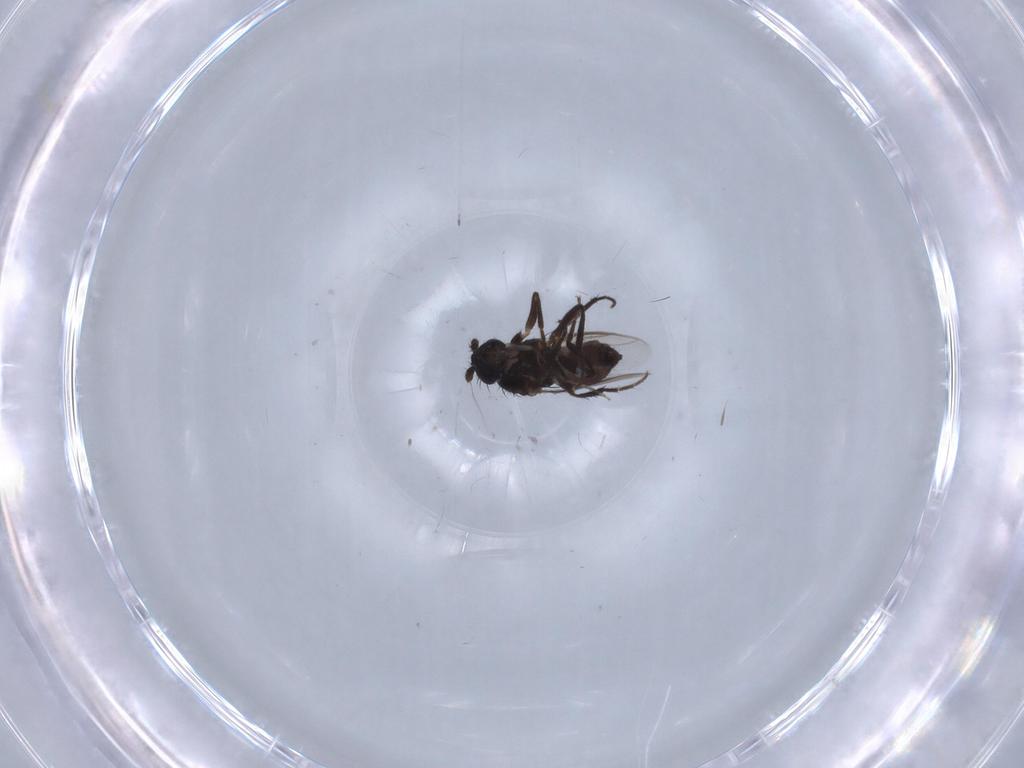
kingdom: Animalia
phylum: Arthropoda
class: Insecta
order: Diptera
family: Sphaeroceridae
